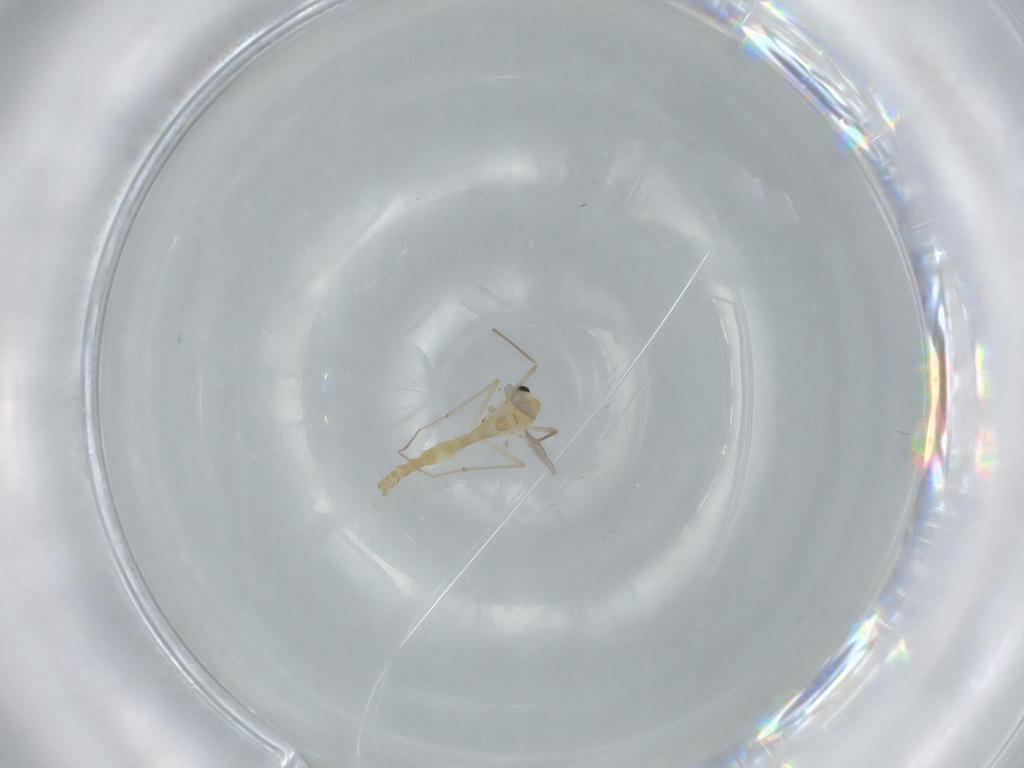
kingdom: Animalia
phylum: Arthropoda
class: Insecta
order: Diptera
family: Chironomidae
